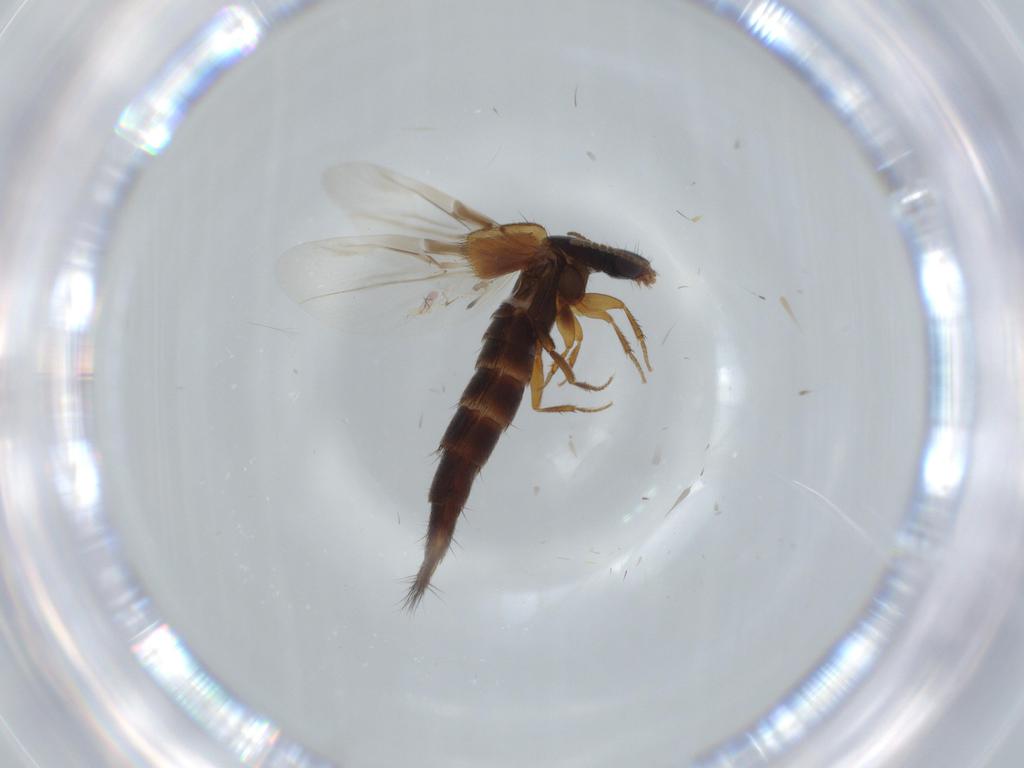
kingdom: Animalia
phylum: Arthropoda
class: Insecta
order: Coleoptera
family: Staphylinidae
